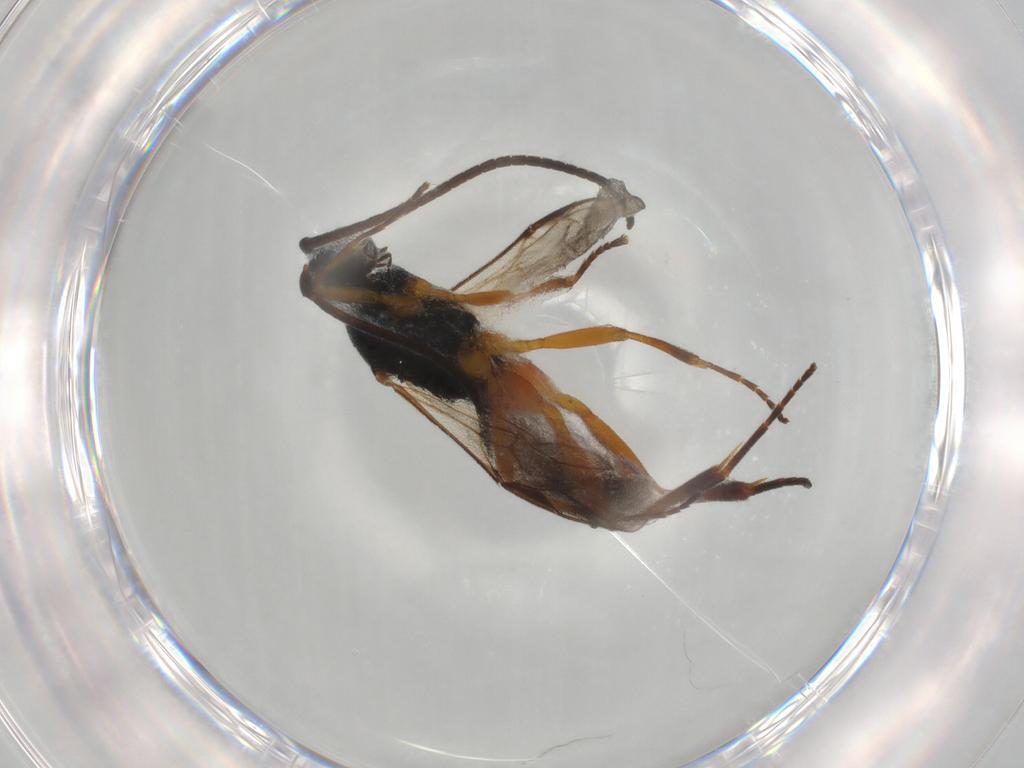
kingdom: Animalia
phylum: Arthropoda
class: Insecta
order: Hymenoptera
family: Braconidae
